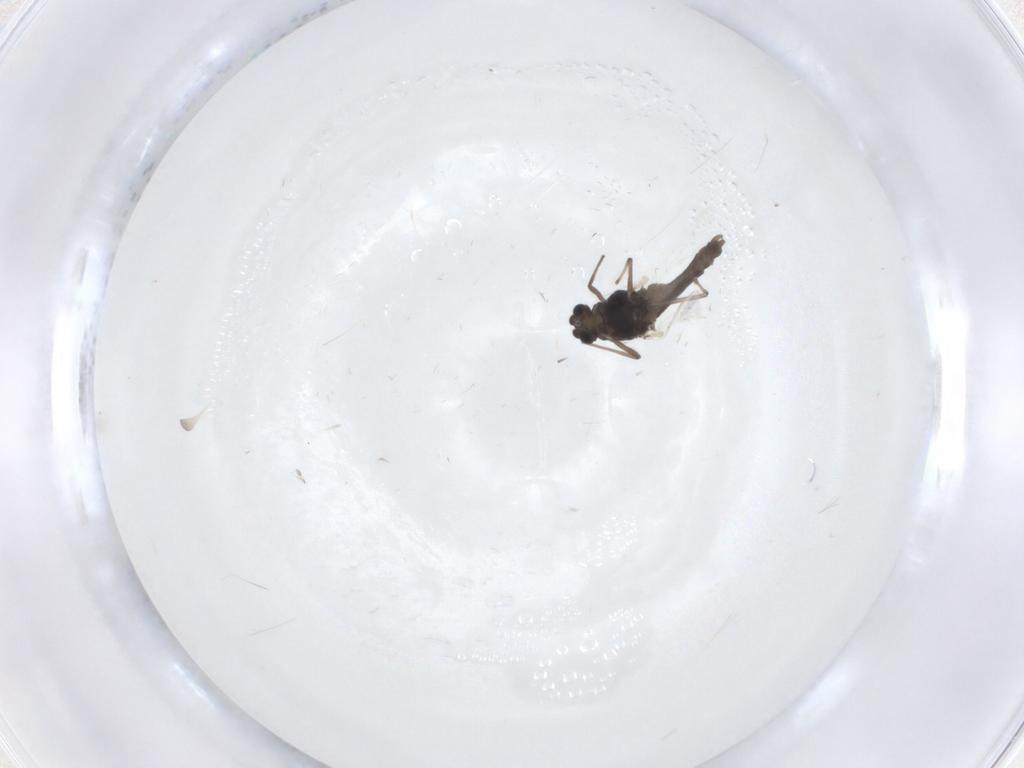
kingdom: Animalia
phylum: Arthropoda
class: Insecta
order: Diptera
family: Chironomidae
